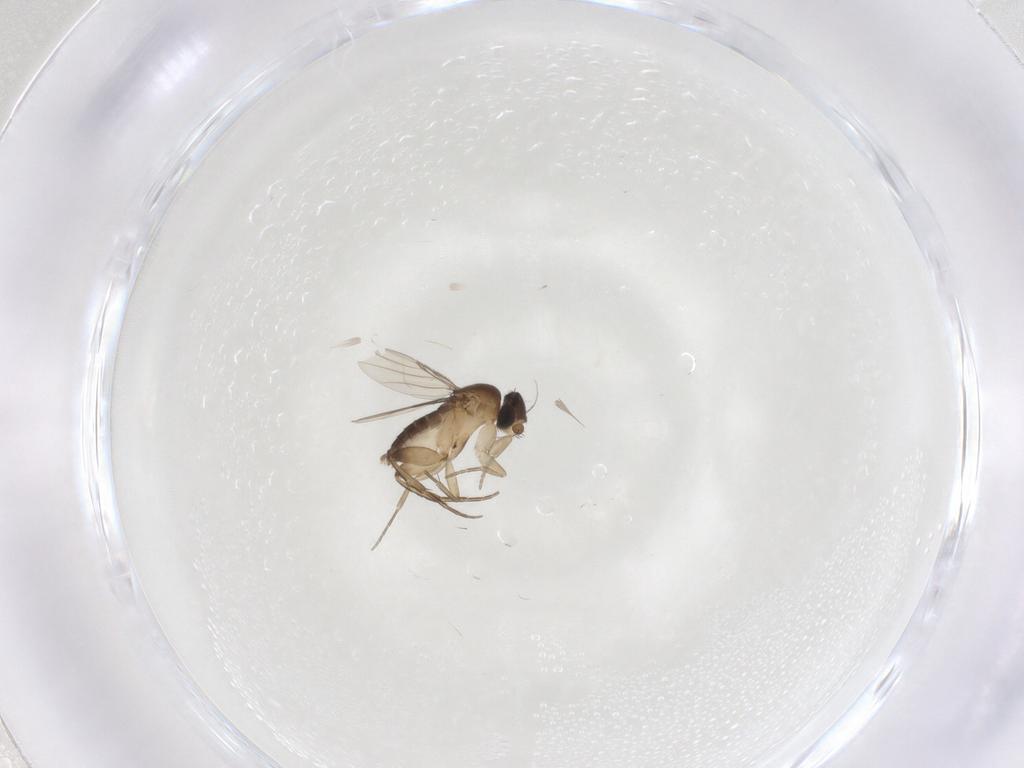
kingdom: Animalia
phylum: Arthropoda
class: Insecta
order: Diptera
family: Phoridae
